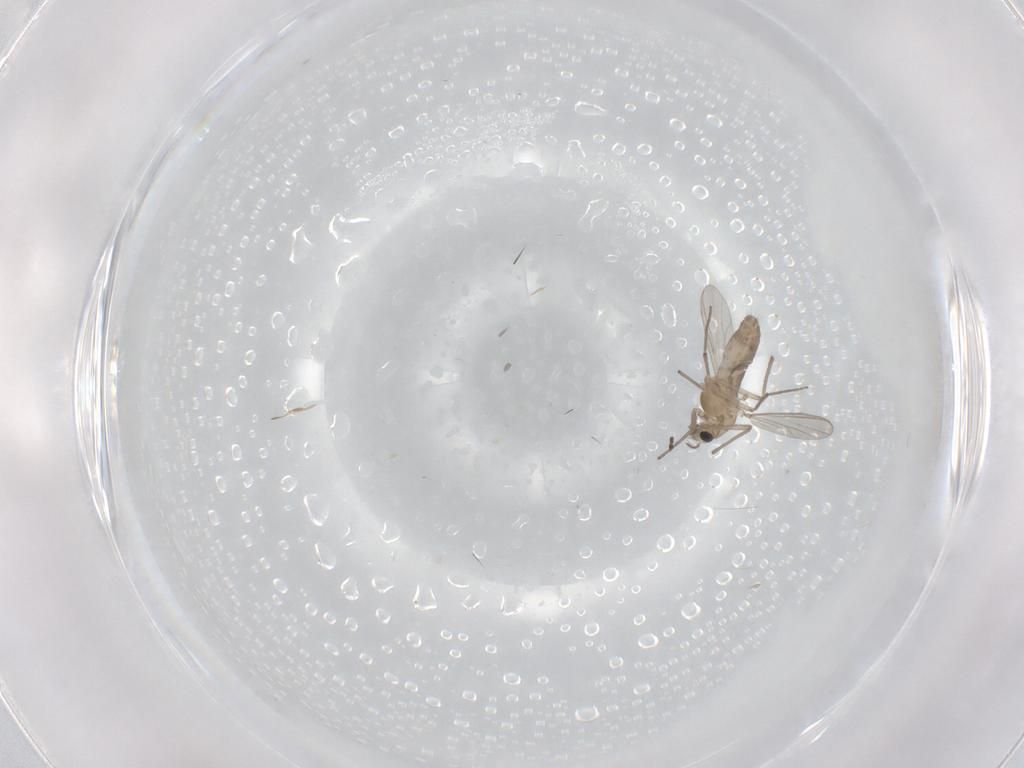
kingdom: Animalia
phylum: Arthropoda
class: Insecta
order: Diptera
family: Chironomidae
